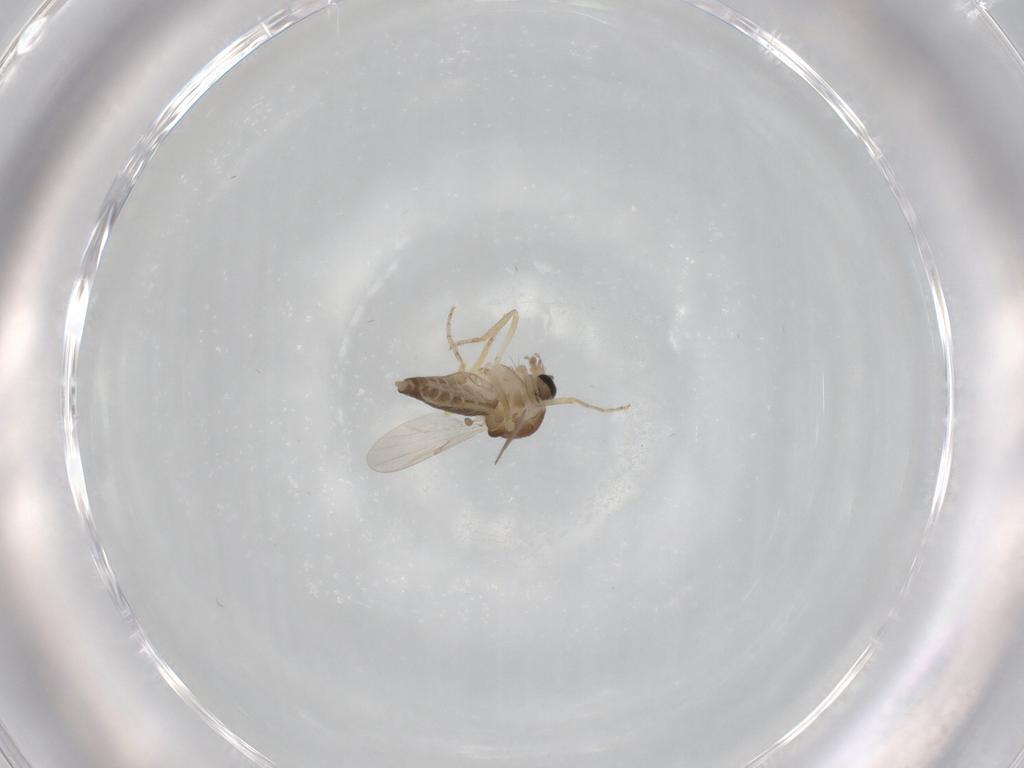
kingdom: Animalia
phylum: Arthropoda
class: Insecta
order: Diptera
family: Ceratopogonidae
